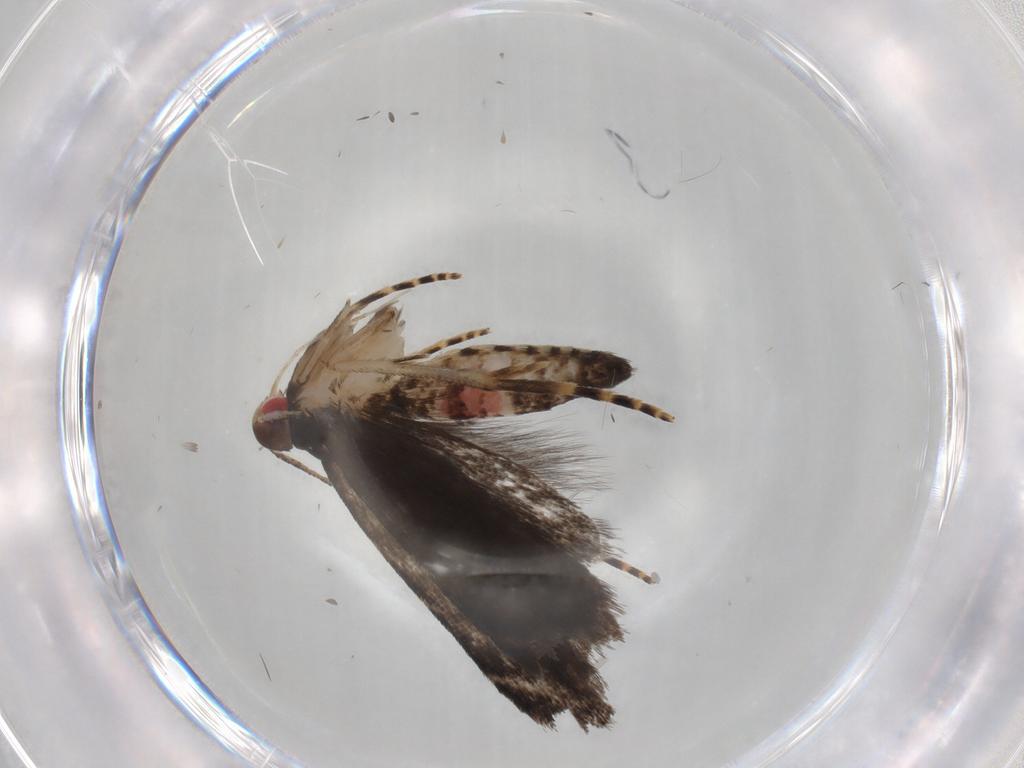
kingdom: Animalia
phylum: Arthropoda
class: Insecta
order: Lepidoptera
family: Gelechiidae
